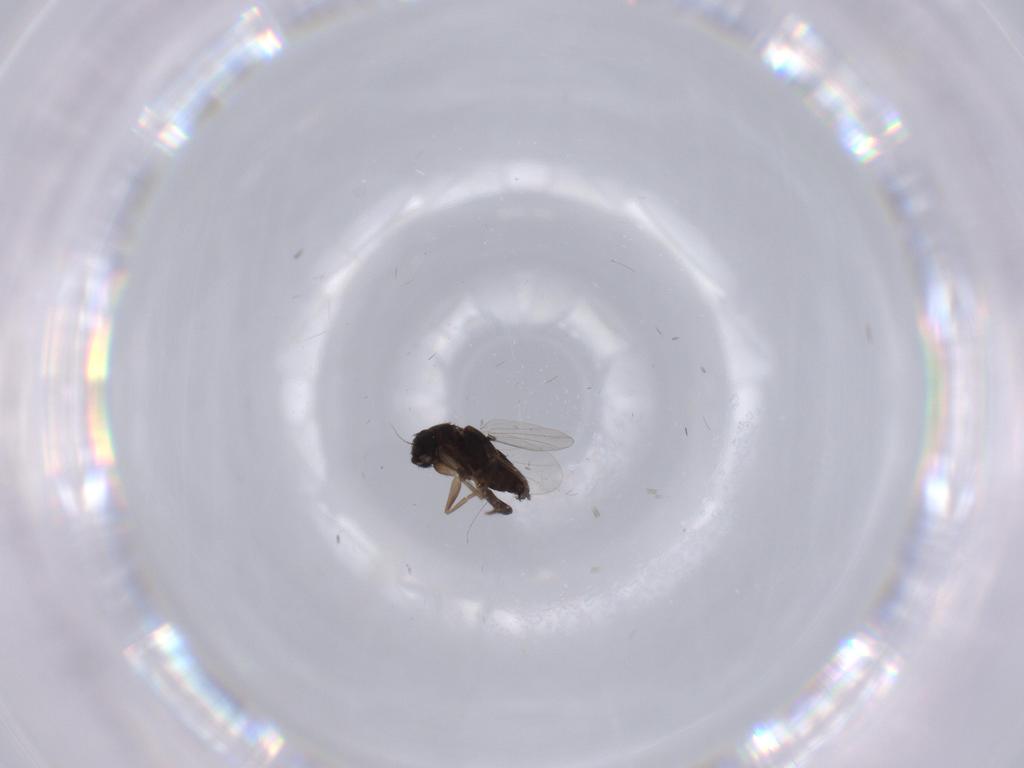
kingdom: Animalia
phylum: Arthropoda
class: Insecta
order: Diptera
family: Phoridae
